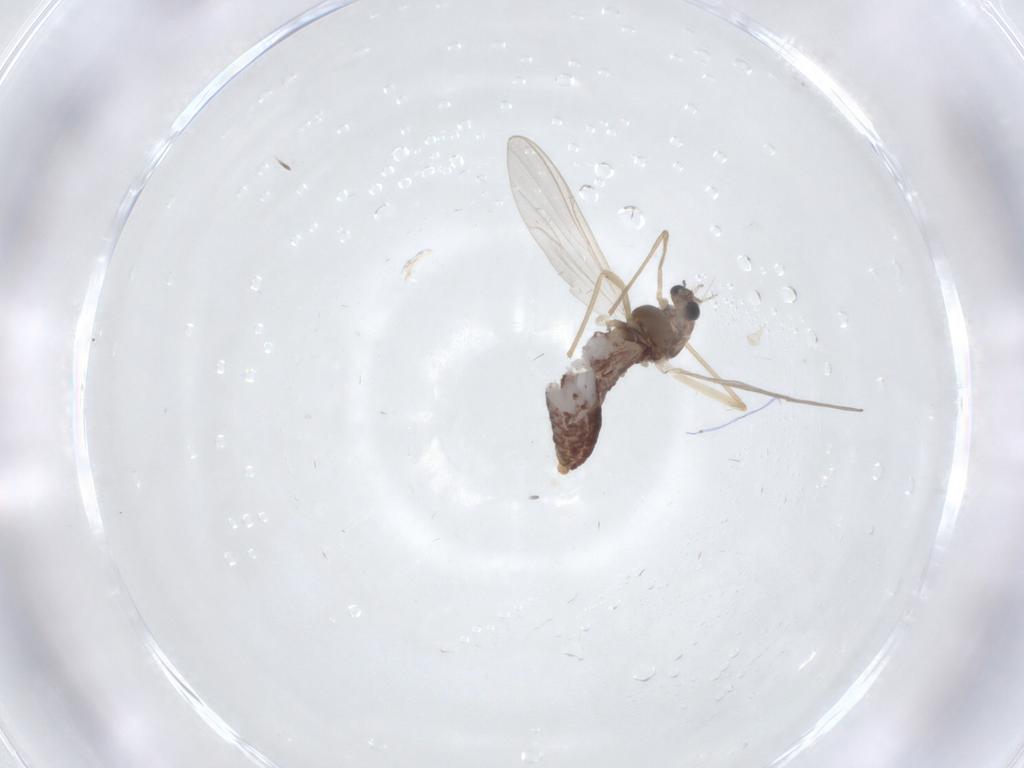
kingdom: Animalia
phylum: Arthropoda
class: Insecta
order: Diptera
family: Chironomidae
